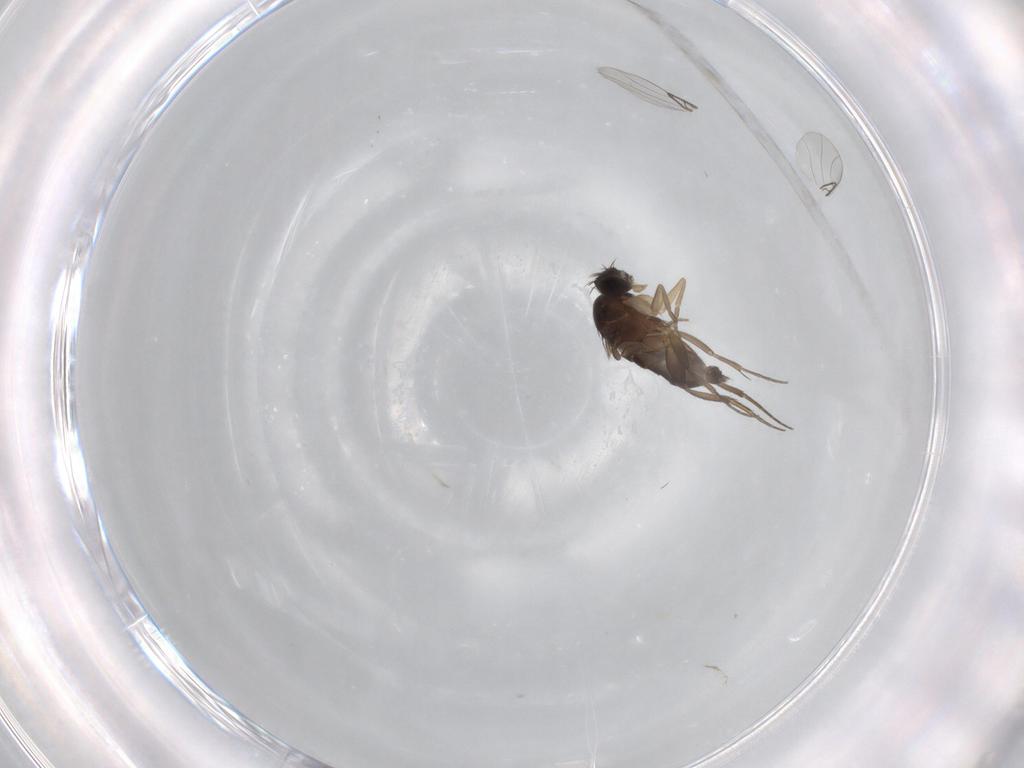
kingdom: Animalia
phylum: Arthropoda
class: Insecta
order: Diptera
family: Phoridae
